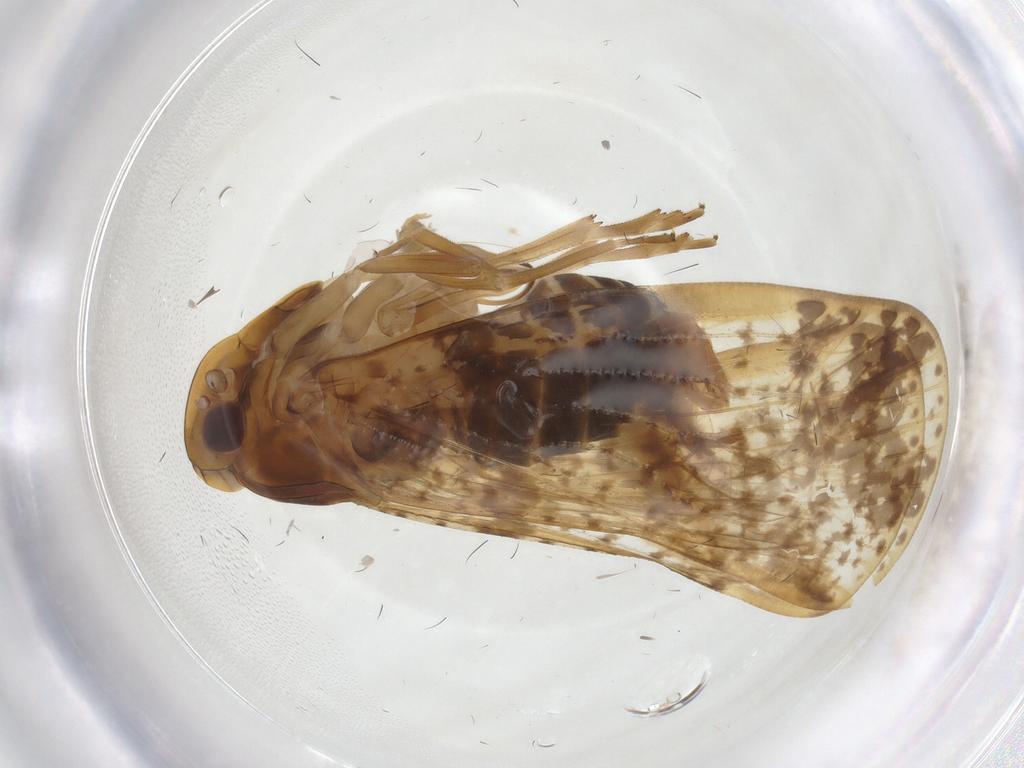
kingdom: Animalia
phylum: Arthropoda
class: Insecta
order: Hemiptera
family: Cixiidae
